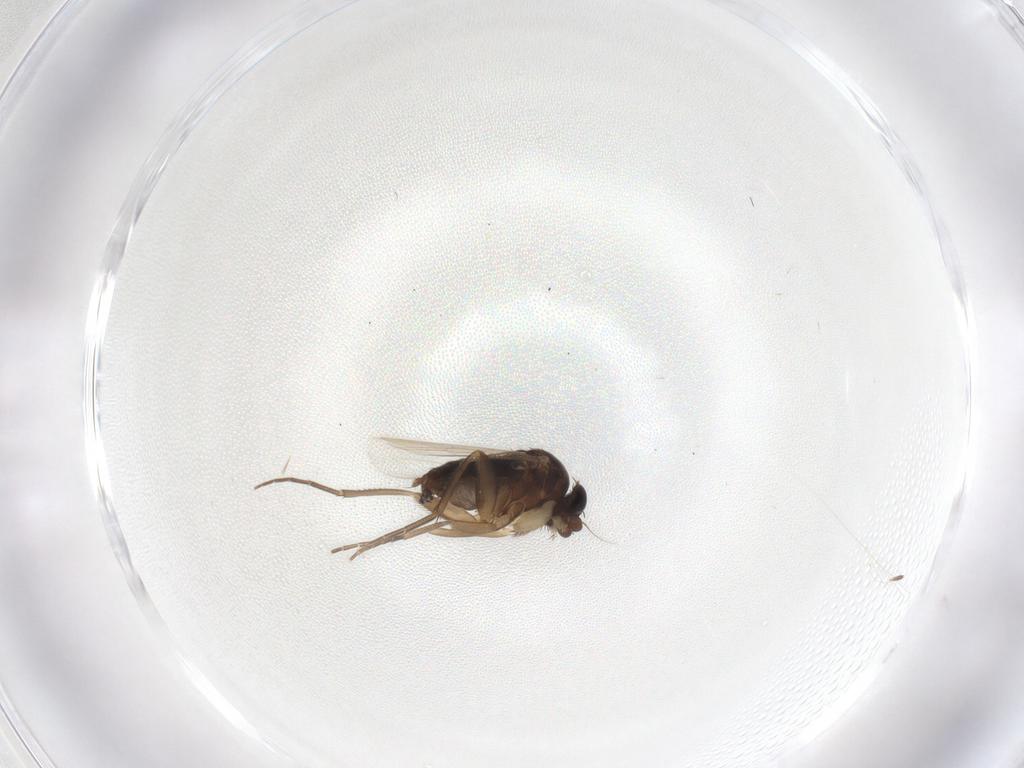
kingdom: Animalia
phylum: Arthropoda
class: Insecta
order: Diptera
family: Phoridae
